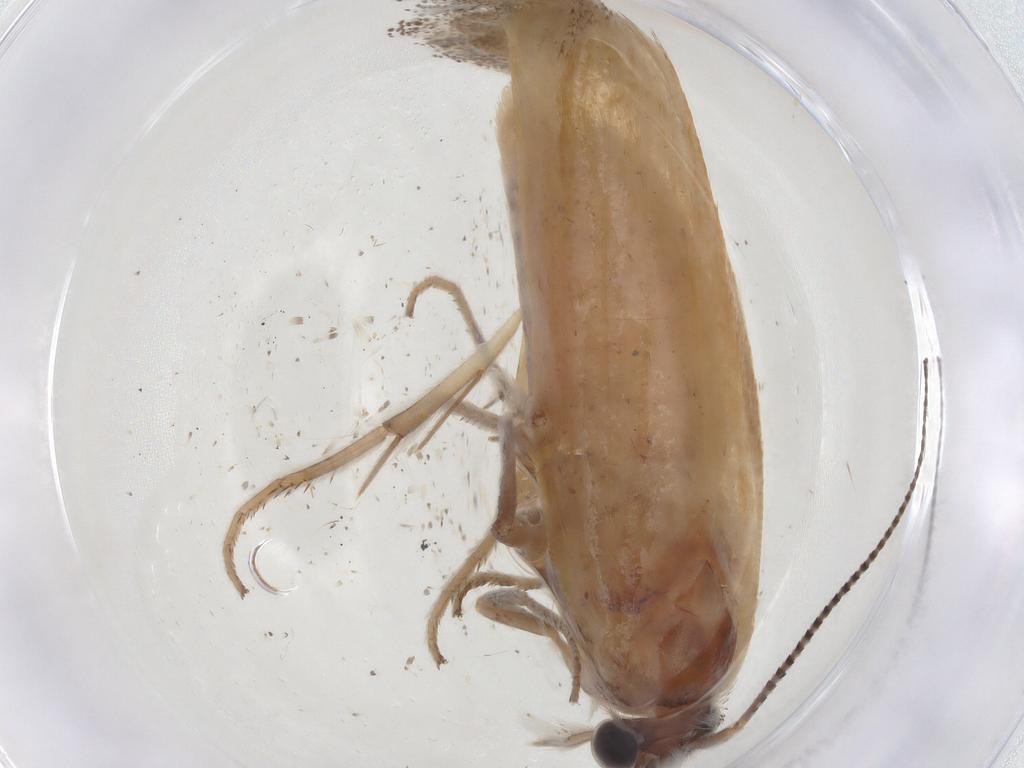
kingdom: Animalia
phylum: Arthropoda
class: Insecta
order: Lepidoptera
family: Ypsolophidae
